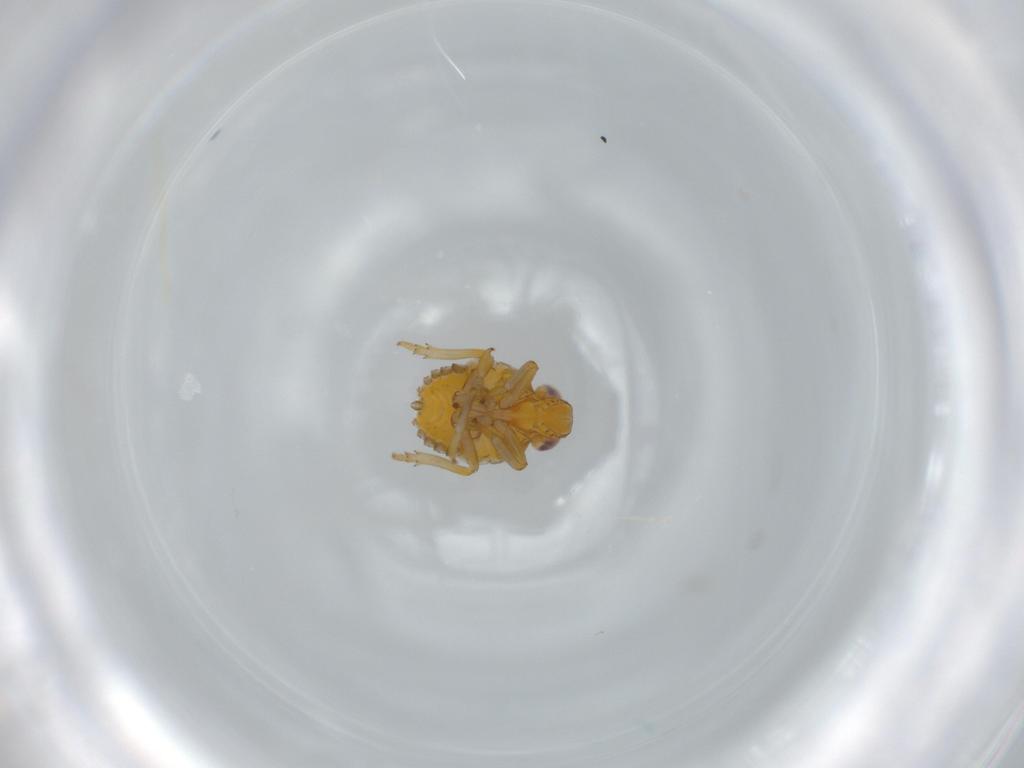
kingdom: Animalia
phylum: Arthropoda
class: Insecta
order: Hemiptera
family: Issidae
